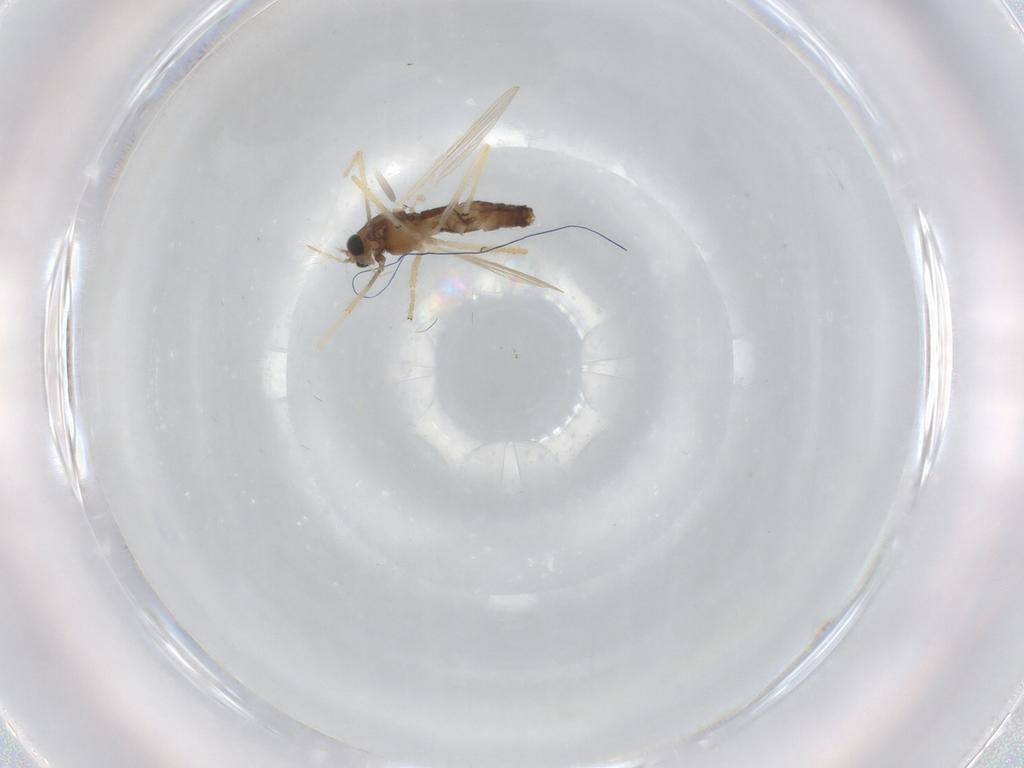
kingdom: Animalia
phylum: Arthropoda
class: Insecta
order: Diptera
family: Chironomidae
